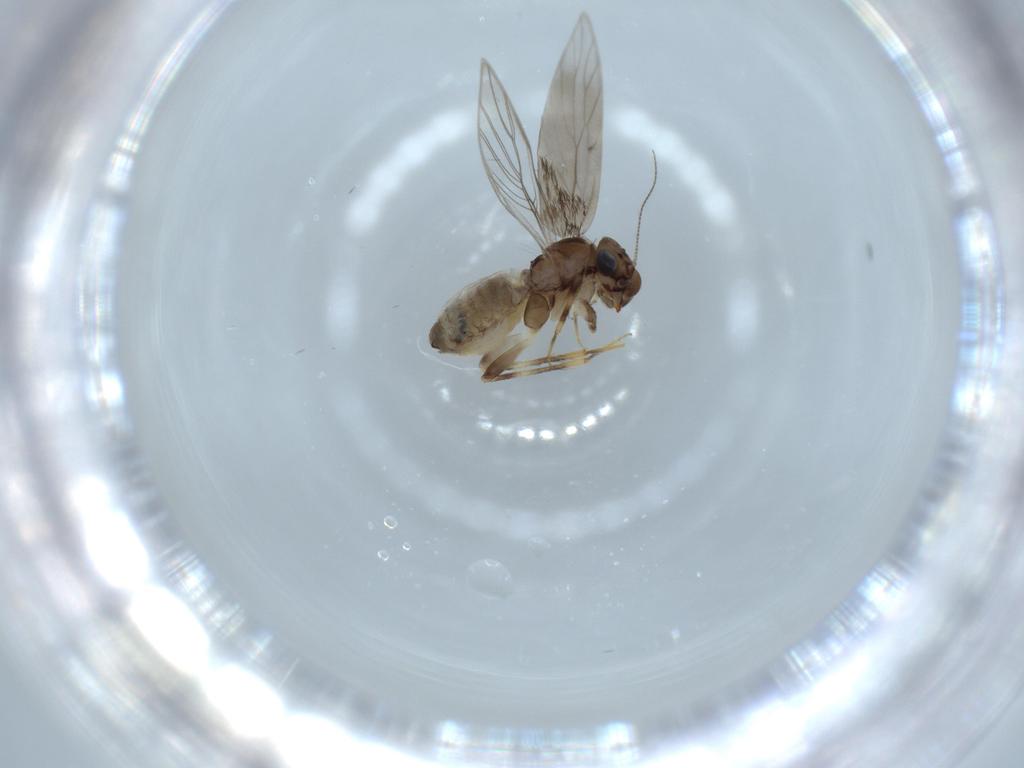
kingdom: Animalia
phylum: Arthropoda
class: Insecta
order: Psocodea
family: Lepidopsocidae
